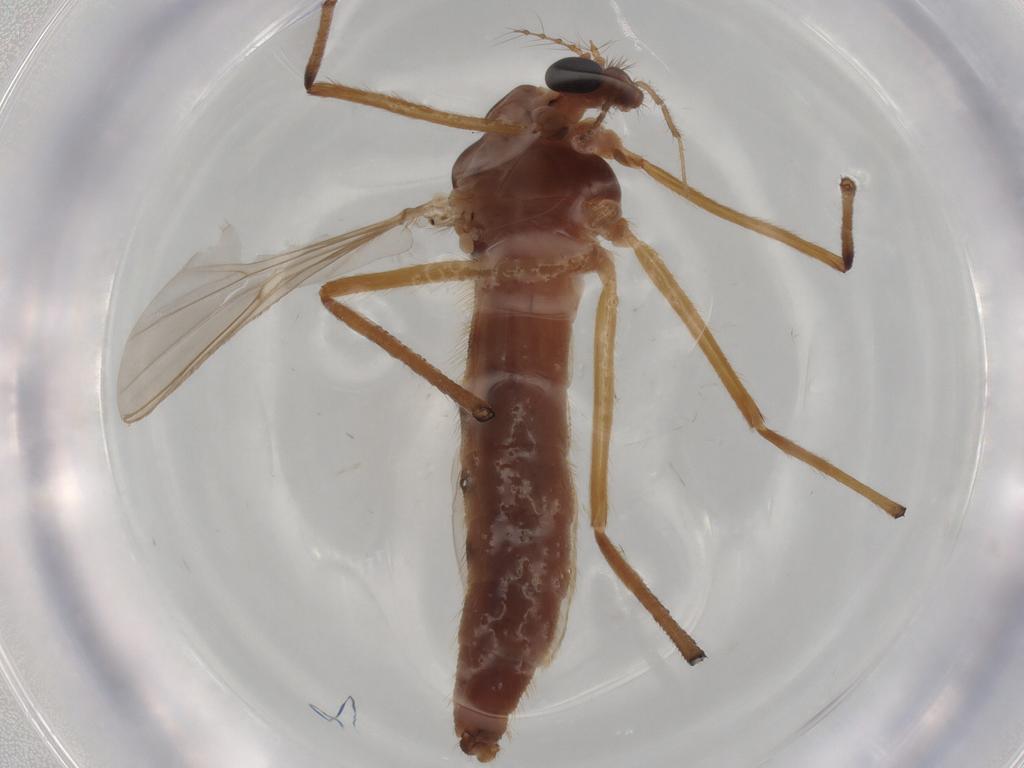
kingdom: Animalia
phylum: Arthropoda
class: Insecta
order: Diptera
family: Chironomidae
